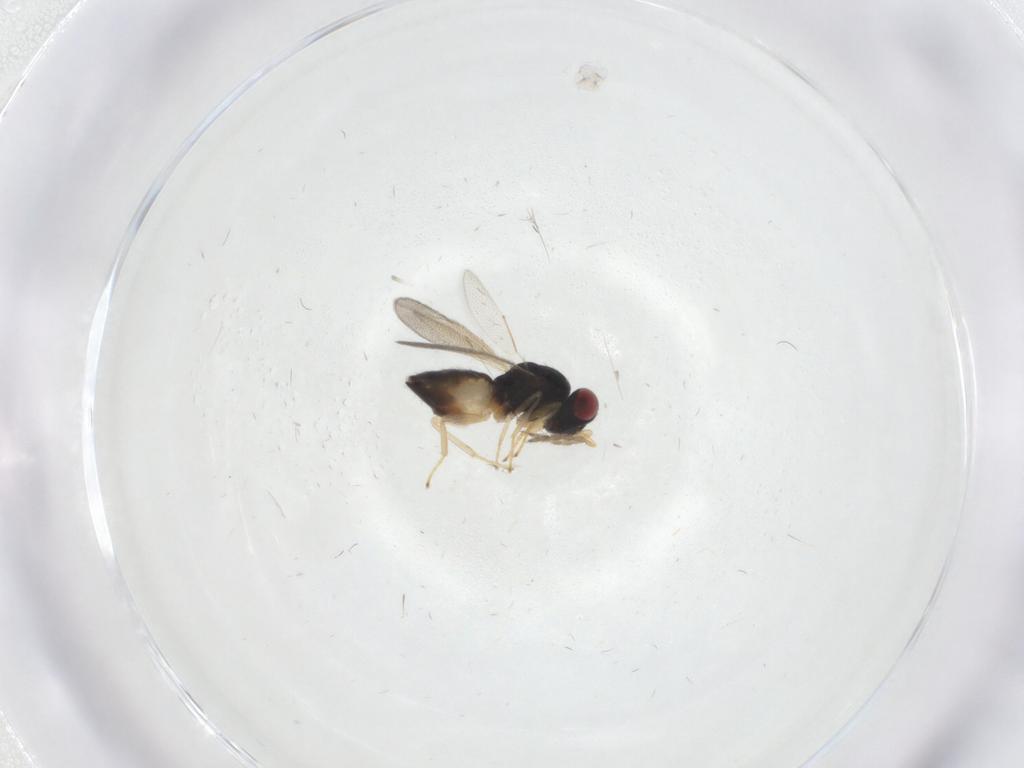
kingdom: Animalia
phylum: Arthropoda
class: Insecta
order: Hymenoptera
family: Eulophidae
